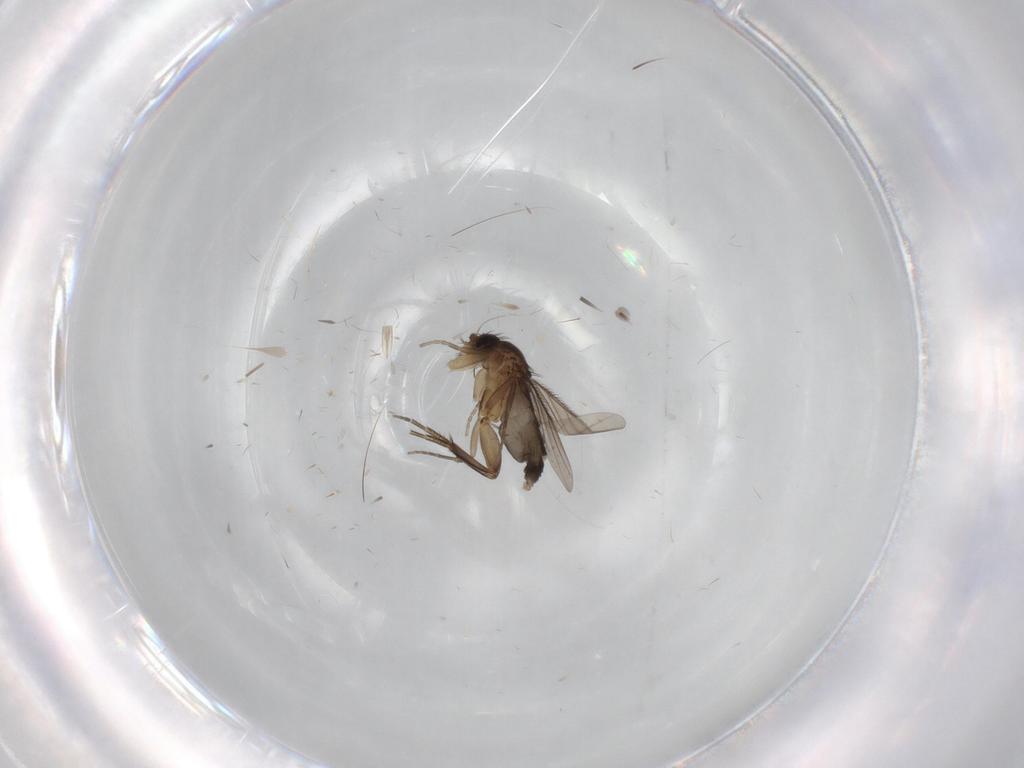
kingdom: Animalia
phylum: Arthropoda
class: Insecta
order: Diptera
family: Phoridae
